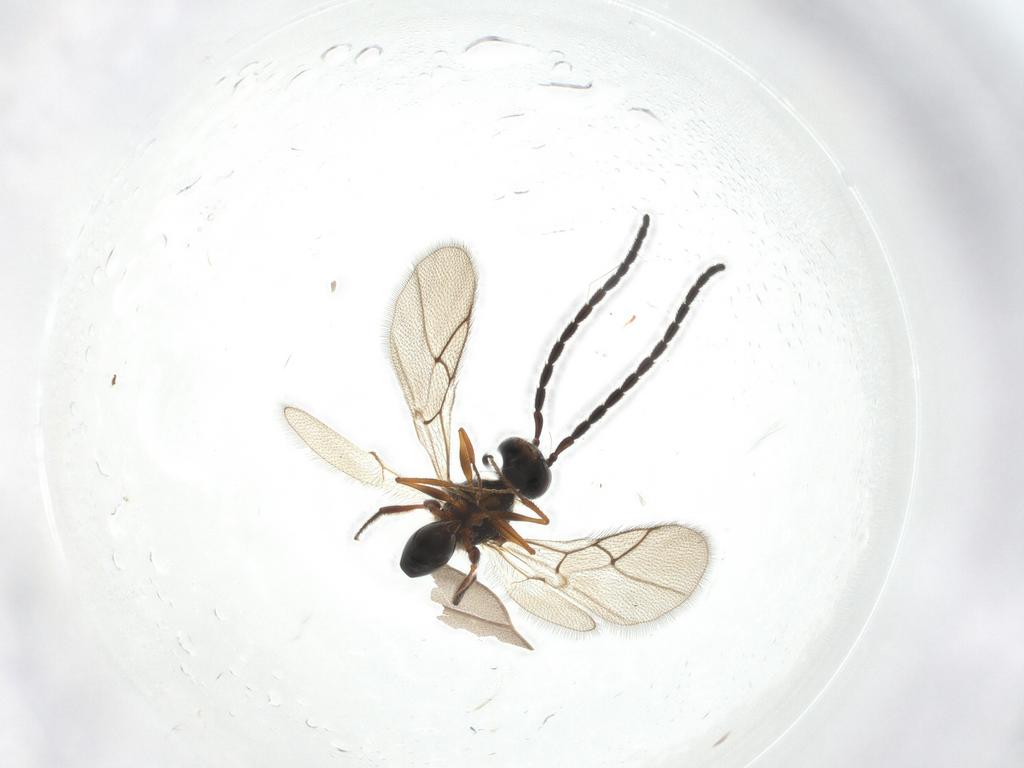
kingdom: Animalia
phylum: Arthropoda
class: Insecta
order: Hymenoptera
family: Figitidae
